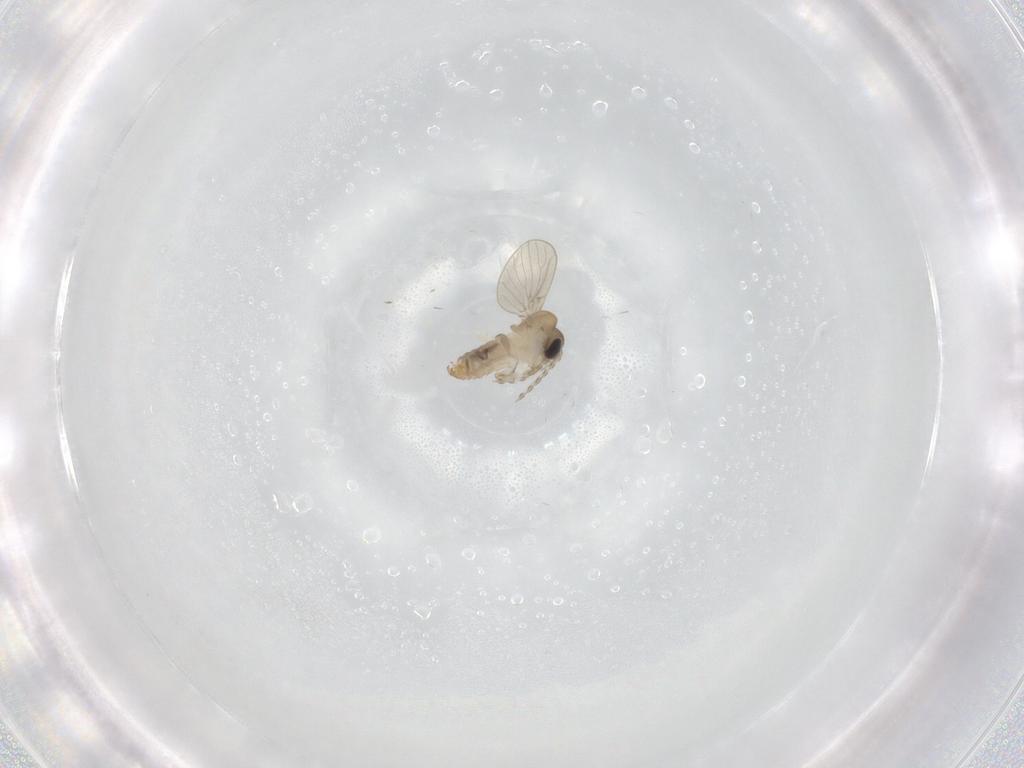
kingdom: Animalia
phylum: Arthropoda
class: Insecta
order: Diptera
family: Psychodidae
